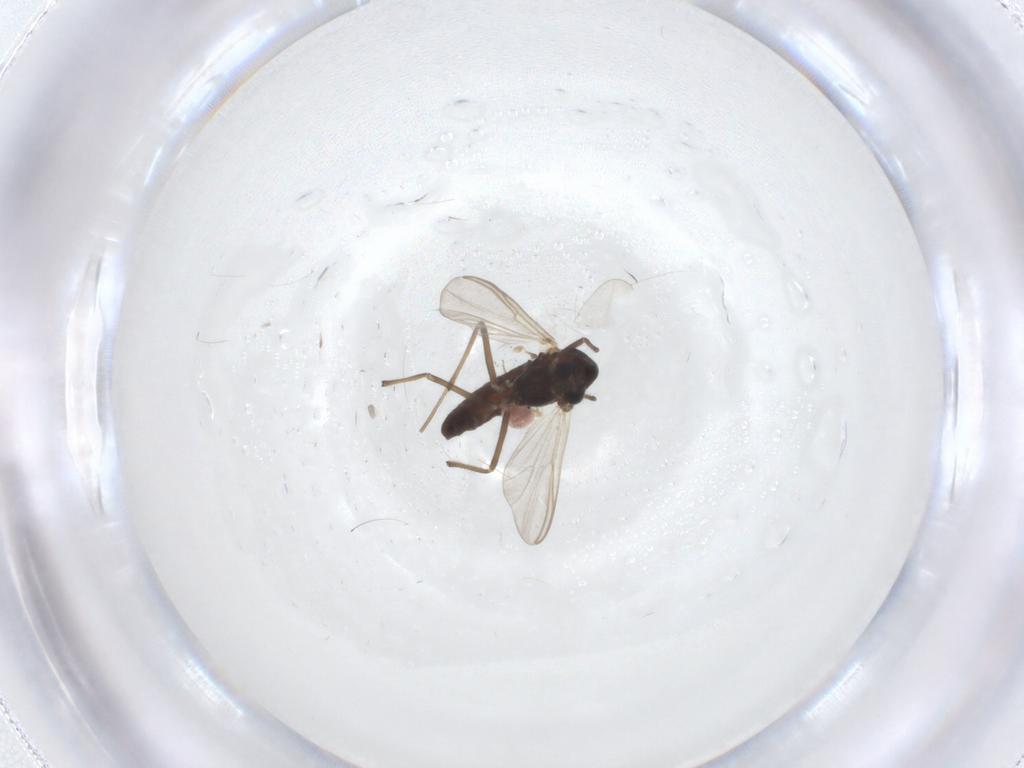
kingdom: Animalia
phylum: Arthropoda
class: Insecta
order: Diptera
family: Chironomidae
